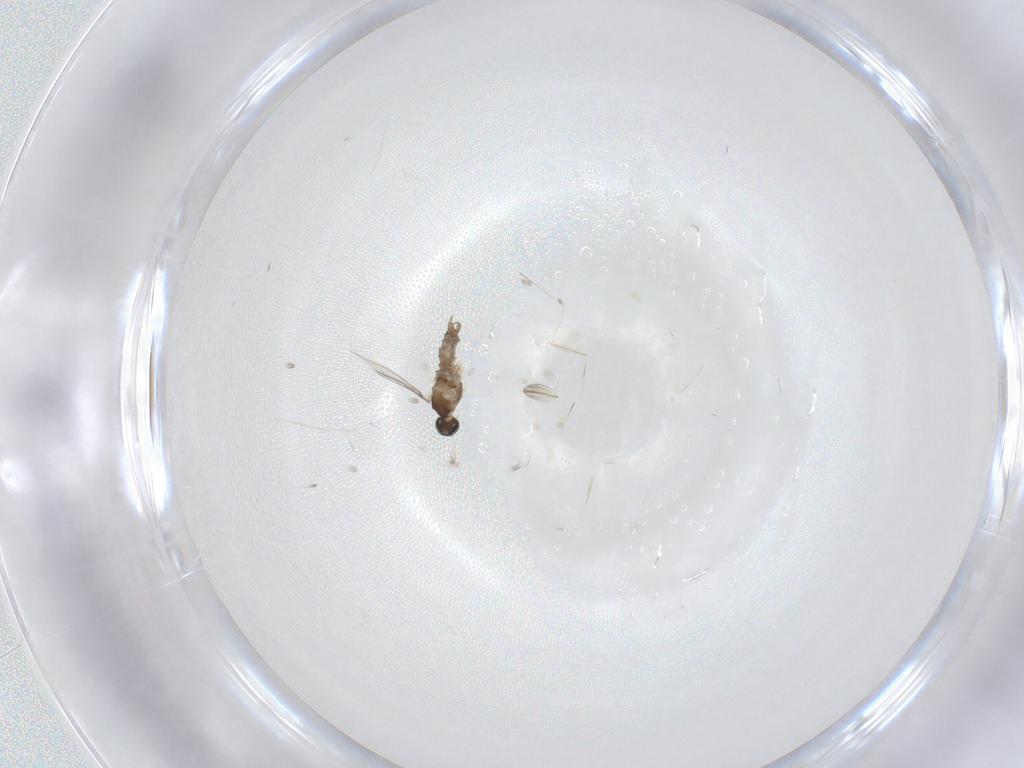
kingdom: Animalia
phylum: Arthropoda
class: Insecta
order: Diptera
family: Cecidomyiidae
